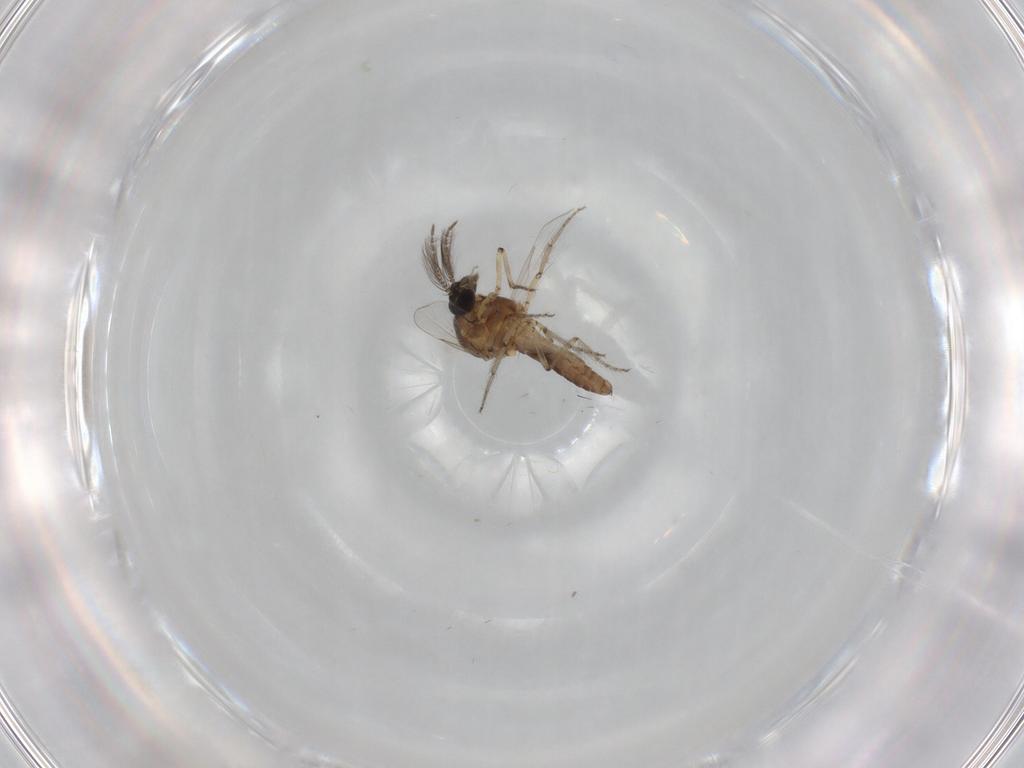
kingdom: Animalia
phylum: Arthropoda
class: Insecta
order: Diptera
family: Ceratopogonidae
